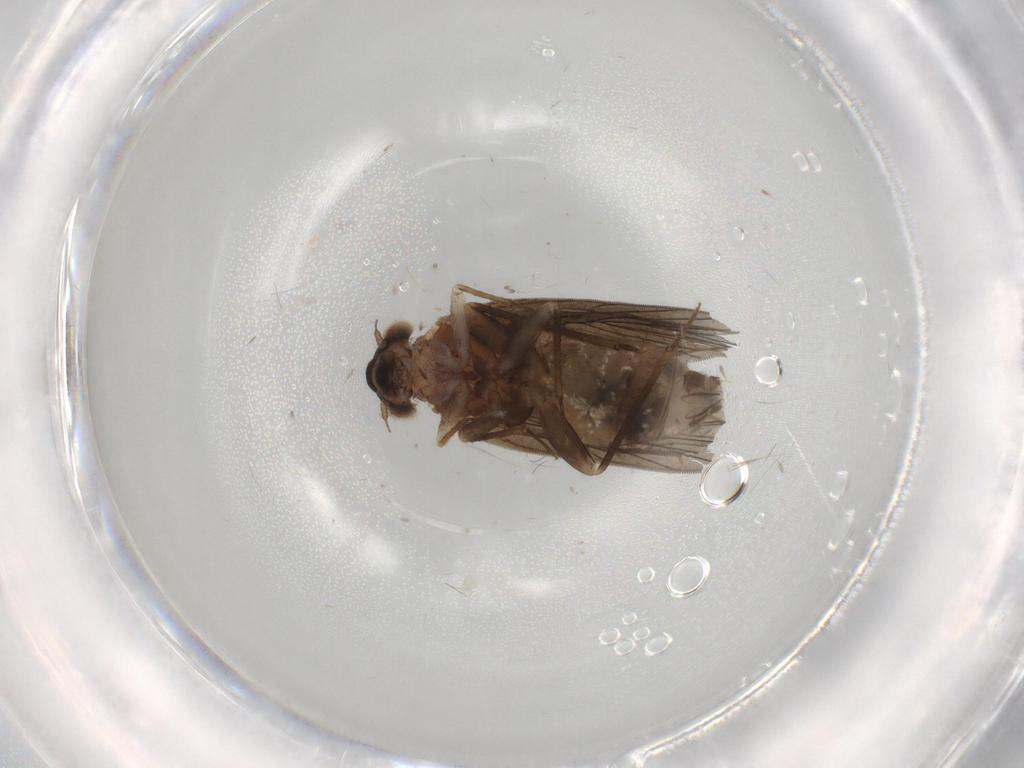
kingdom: Animalia
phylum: Arthropoda
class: Insecta
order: Psocodea
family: Lepidopsocidae
